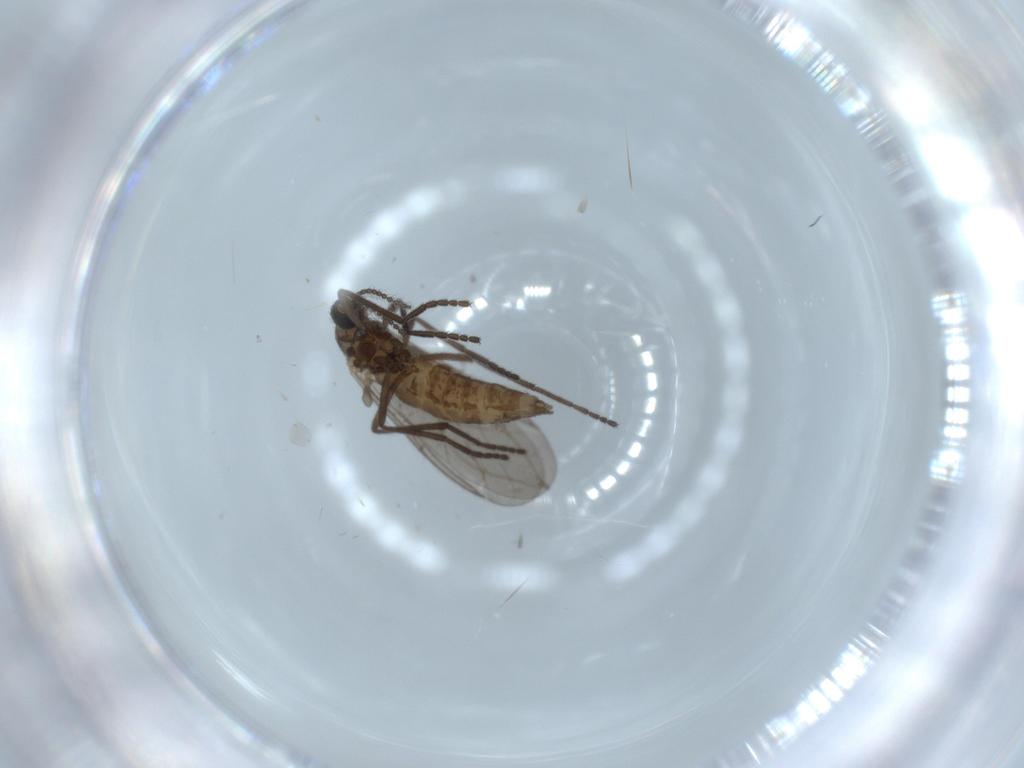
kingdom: Animalia
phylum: Arthropoda
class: Insecta
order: Diptera
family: Cecidomyiidae
